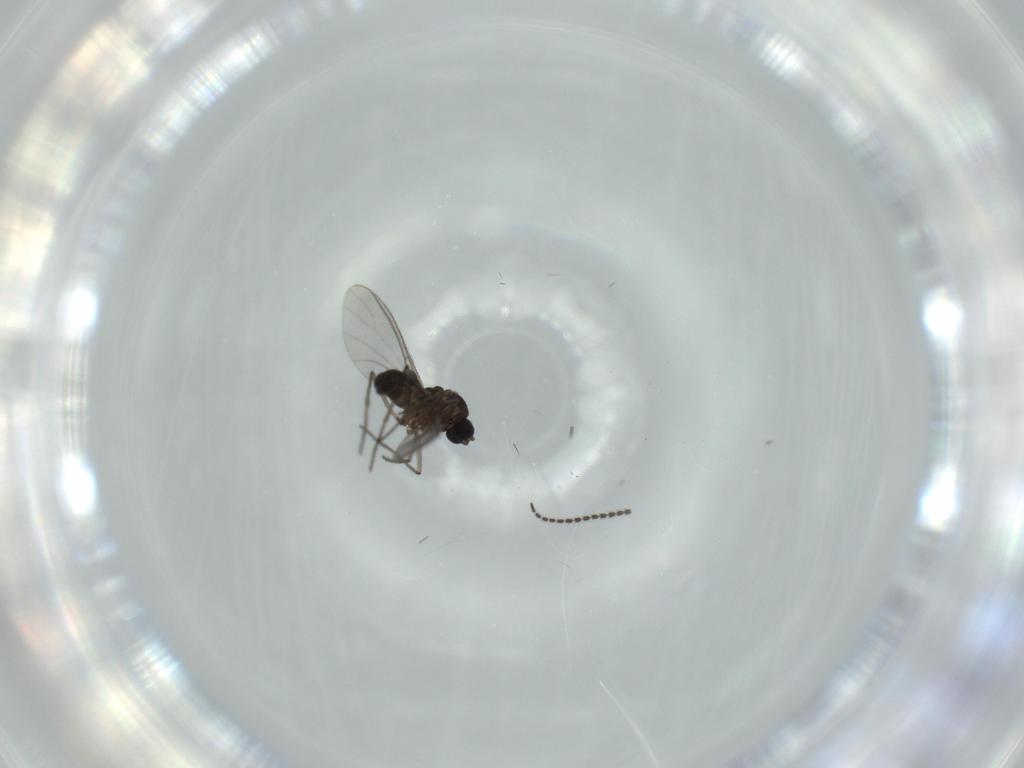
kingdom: Animalia
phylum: Arthropoda
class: Insecta
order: Diptera
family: Sciaridae
